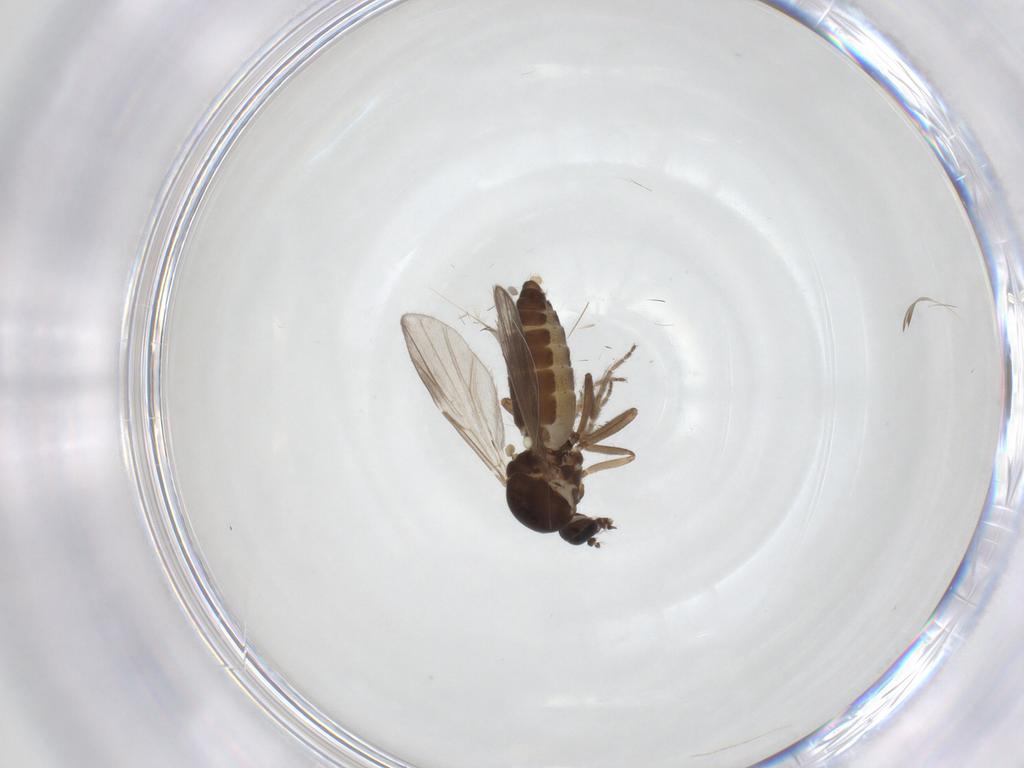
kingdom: Animalia
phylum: Arthropoda
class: Insecta
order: Diptera
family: Ceratopogonidae
